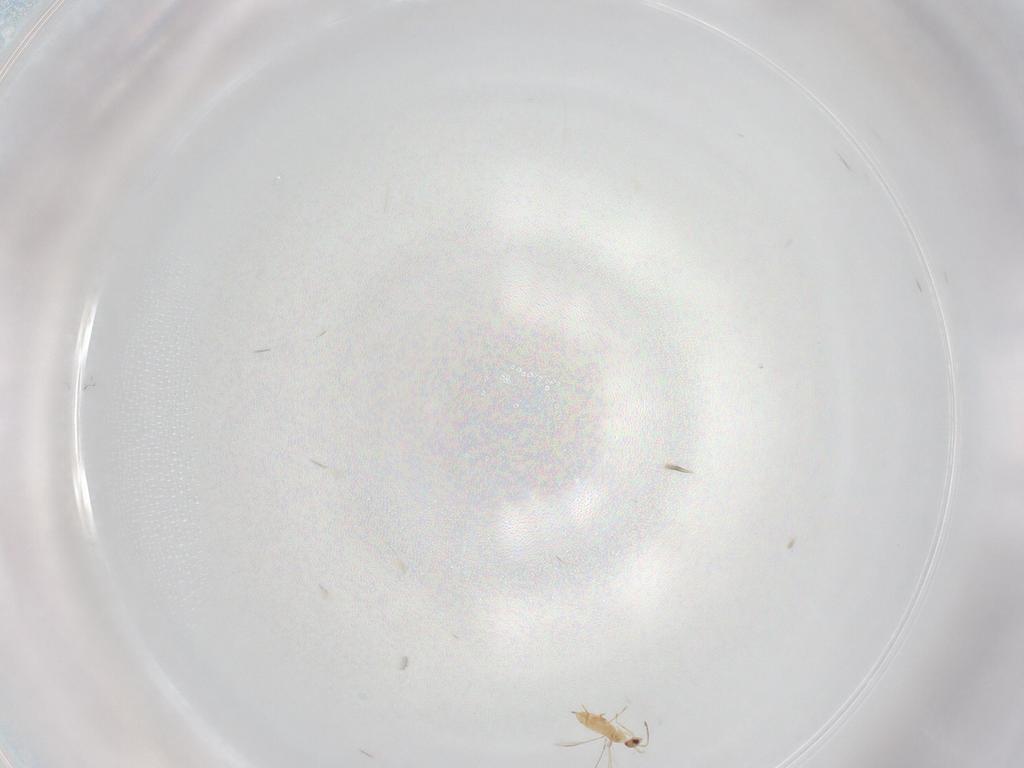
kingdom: Animalia
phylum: Arthropoda
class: Insecta
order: Hymenoptera
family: Mymaridae
